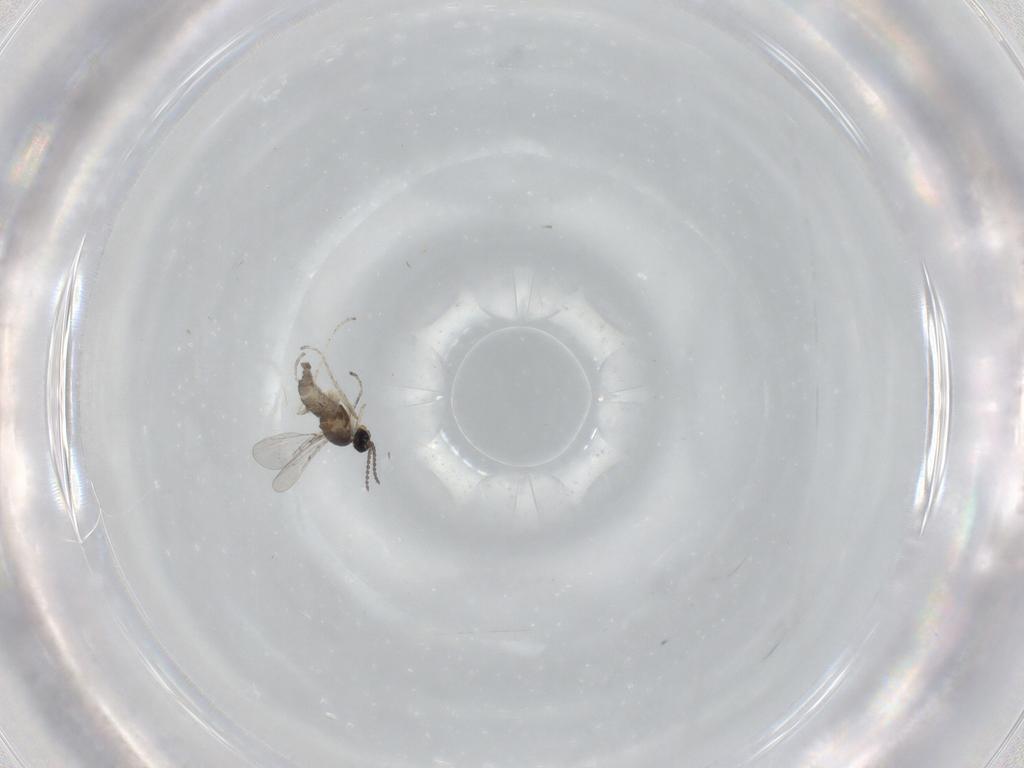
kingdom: Animalia
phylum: Arthropoda
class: Insecta
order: Diptera
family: Cecidomyiidae
